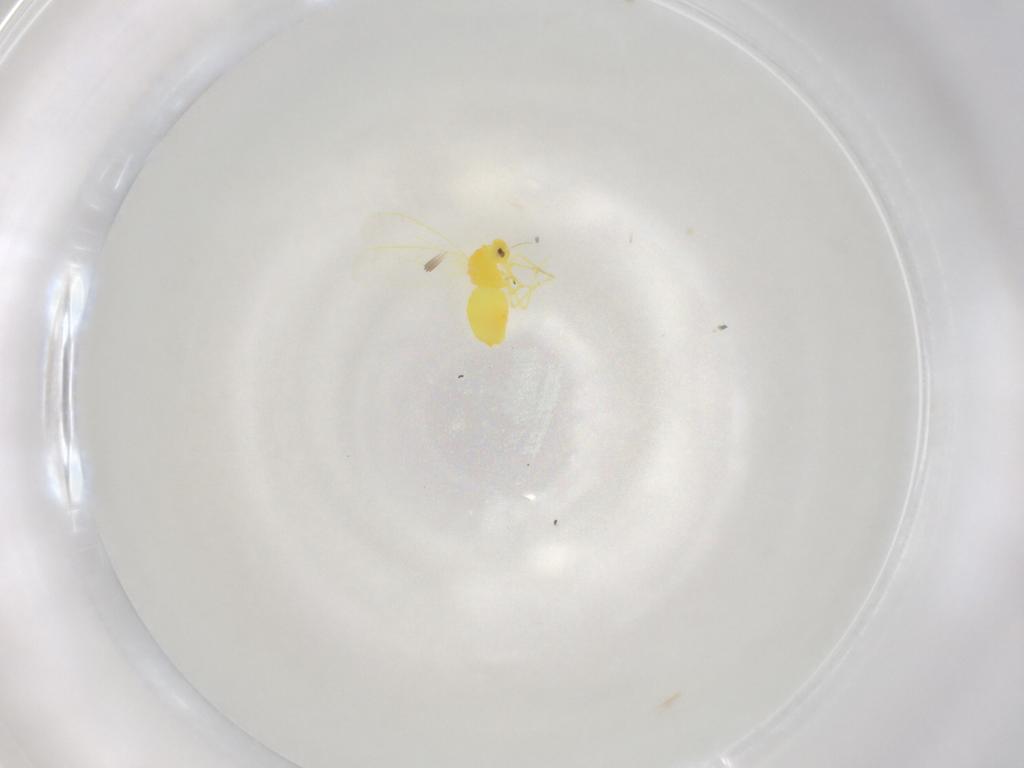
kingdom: Animalia
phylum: Arthropoda
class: Insecta
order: Hemiptera
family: Aleyrodidae
